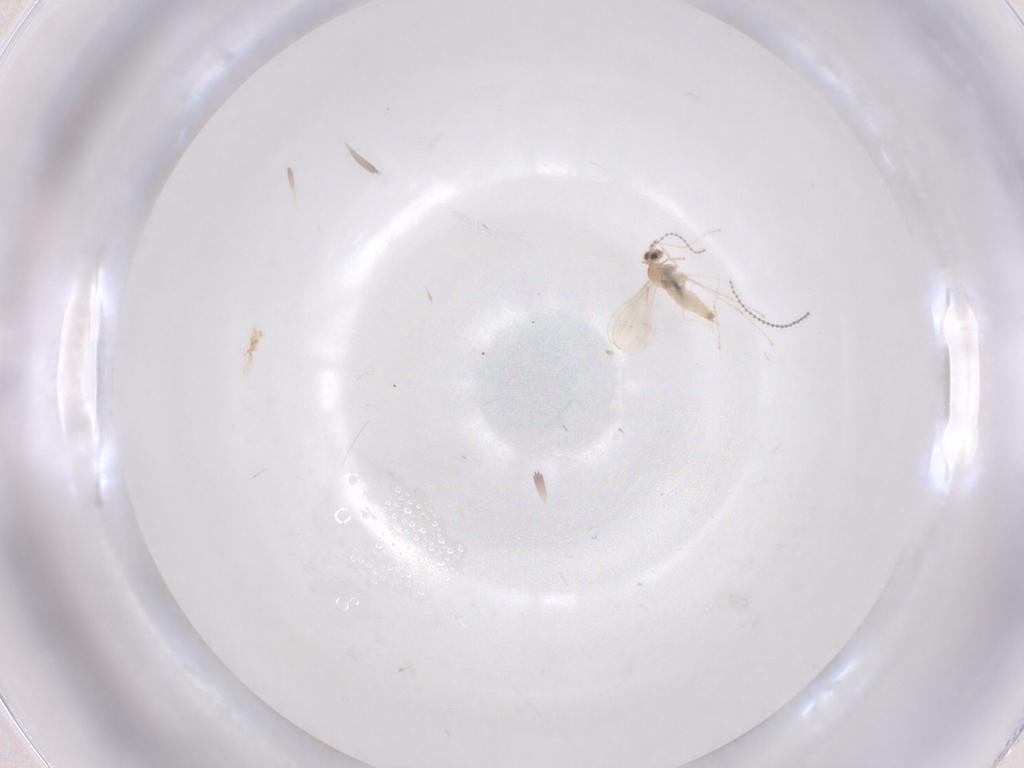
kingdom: Animalia
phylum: Arthropoda
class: Insecta
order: Diptera
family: Cecidomyiidae
